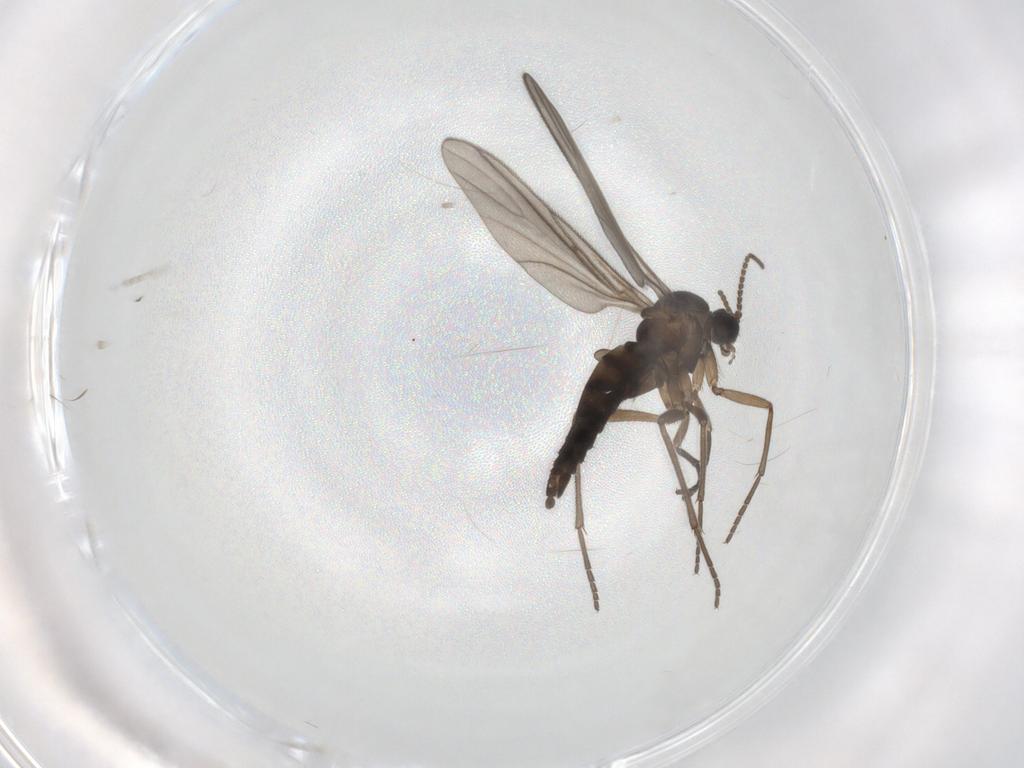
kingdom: Animalia
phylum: Arthropoda
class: Insecta
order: Diptera
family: Sciaridae
